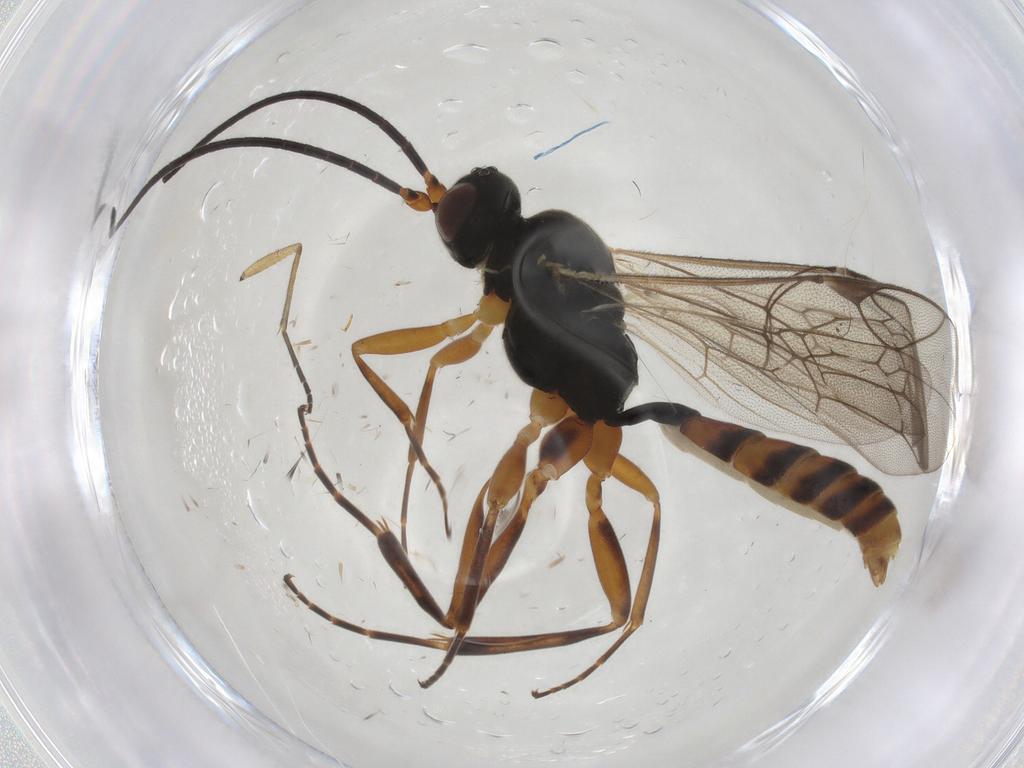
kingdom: Animalia
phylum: Arthropoda
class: Insecta
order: Hymenoptera
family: Ichneumonidae
